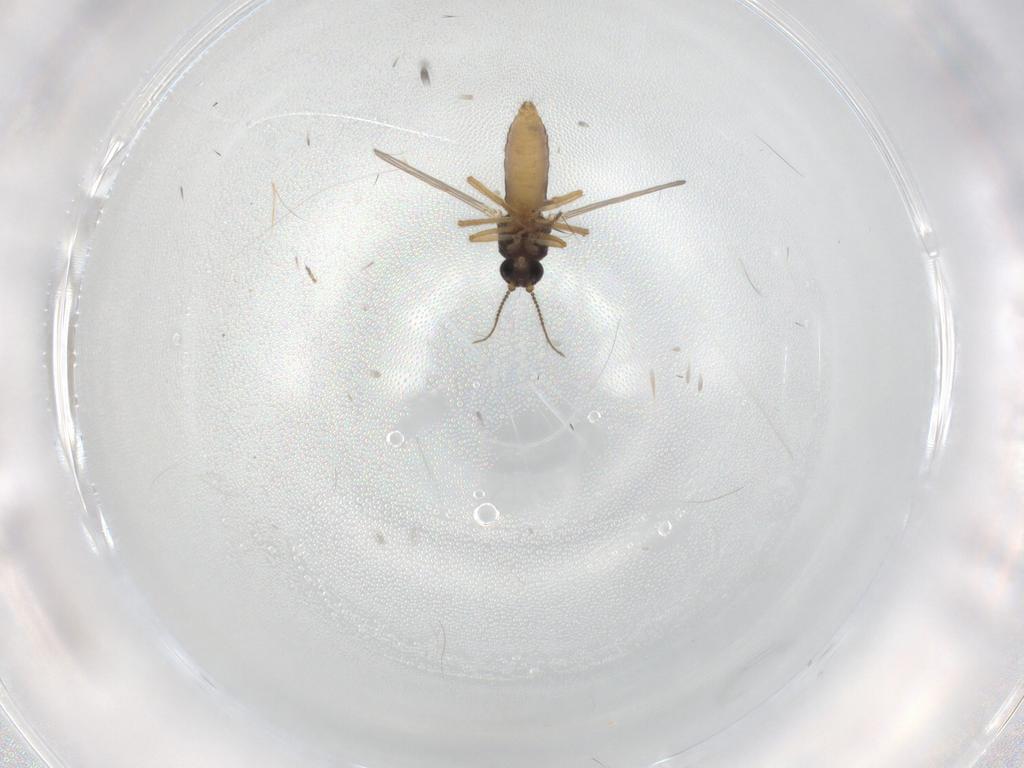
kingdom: Animalia
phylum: Arthropoda
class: Insecta
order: Diptera
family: Ceratopogonidae
